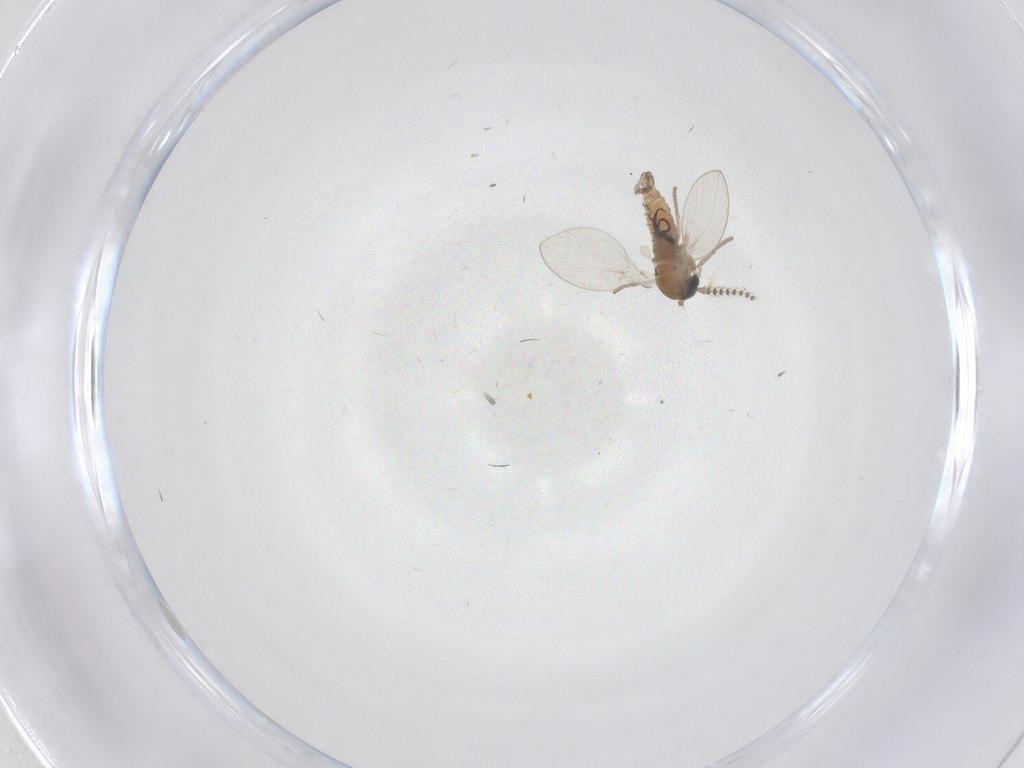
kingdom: Animalia
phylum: Arthropoda
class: Insecta
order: Diptera
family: Psychodidae
